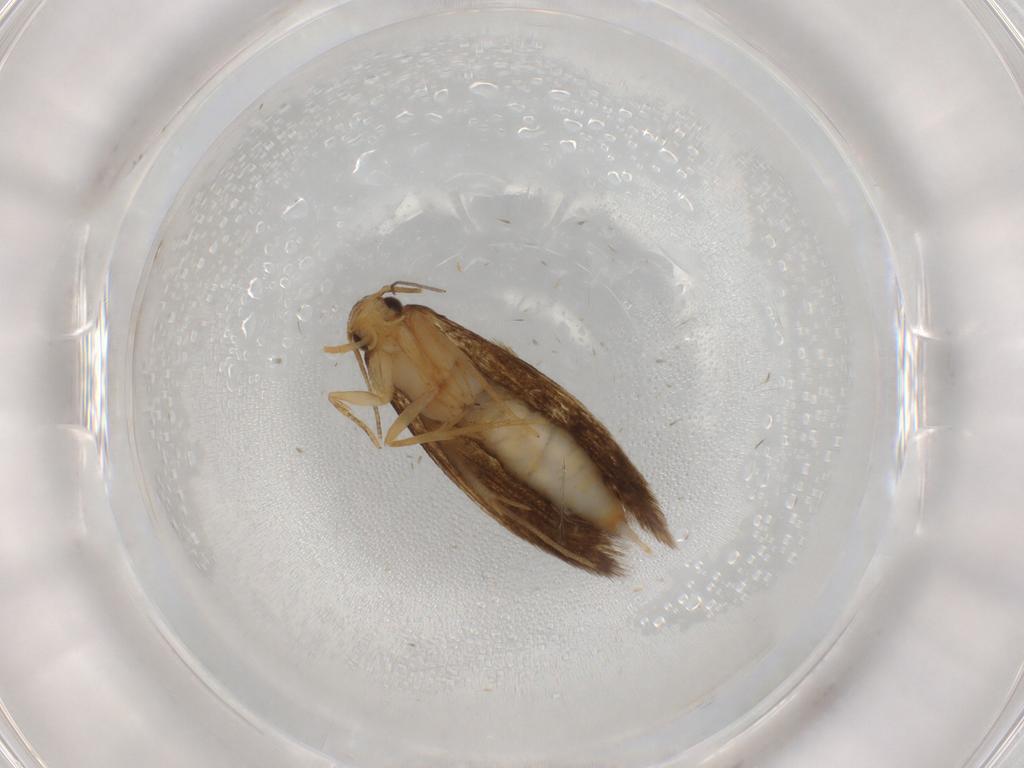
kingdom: Animalia
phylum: Arthropoda
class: Insecta
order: Lepidoptera
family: Tineidae
